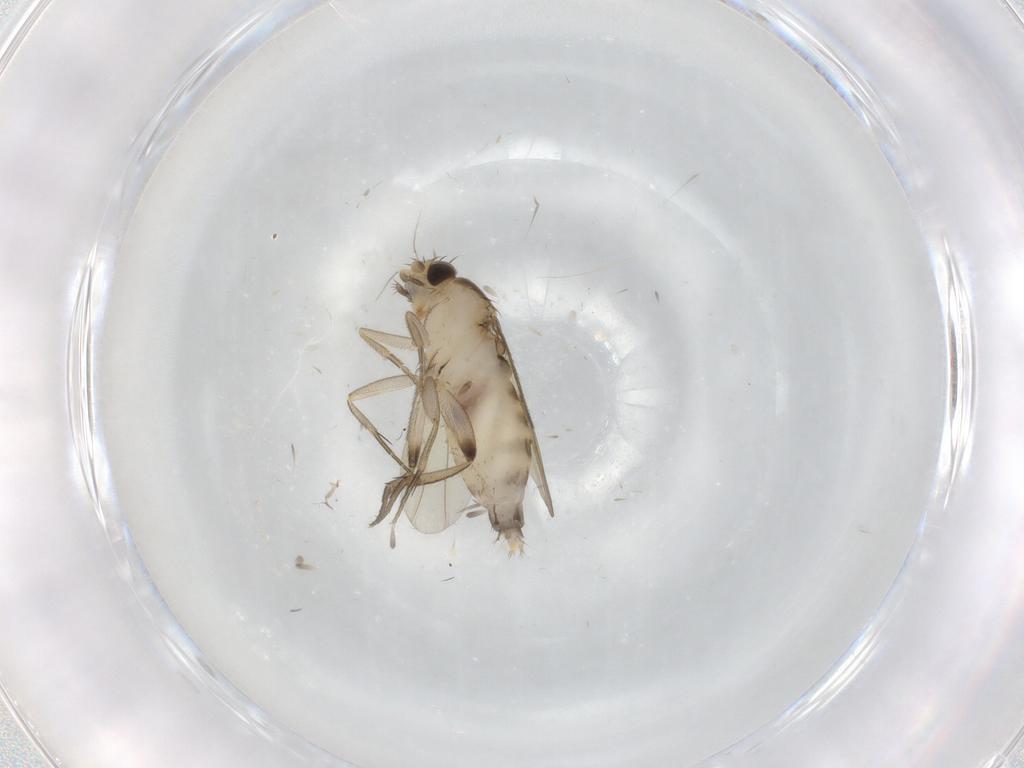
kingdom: Animalia
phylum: Arthropoda
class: Insecta
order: Diptera
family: Phoridae
